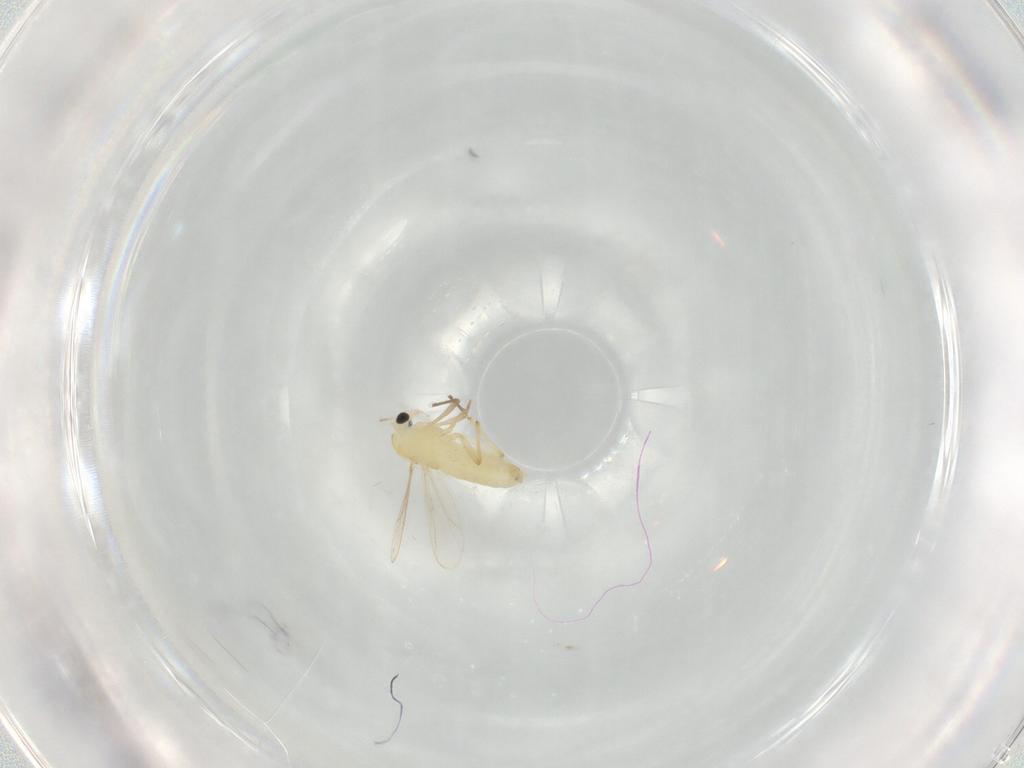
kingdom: Animalia
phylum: Arthropoda
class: Insecta
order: Diptera
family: Chironomidae
